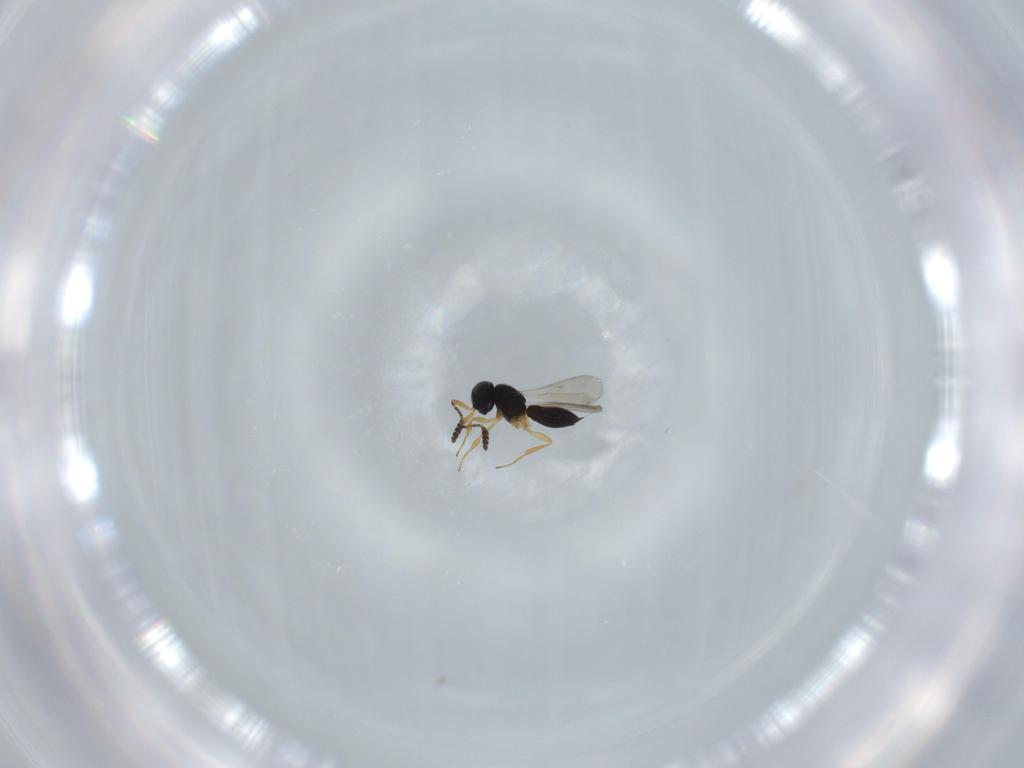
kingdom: Animalia
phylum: Arthropoda
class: Insecta
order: Hymenoptera
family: Scelionidae
